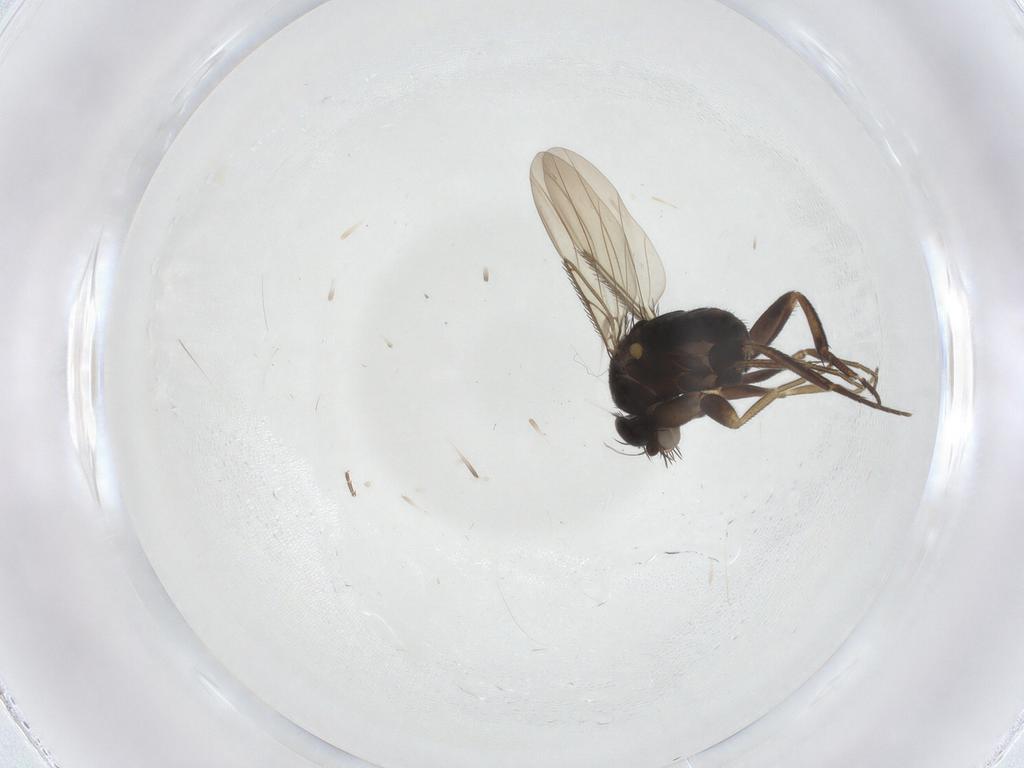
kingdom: Animalia
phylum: Arthropoda
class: Insecta
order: Diptera
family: Phoridae
